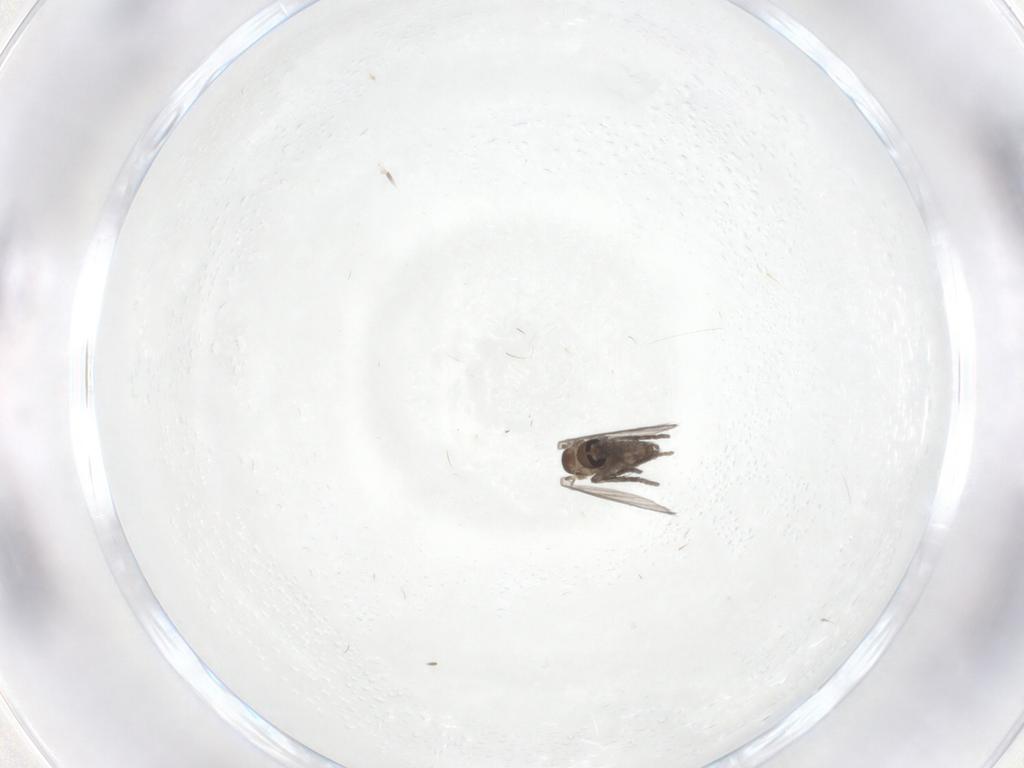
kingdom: Animalia
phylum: Arthropoda
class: Insecta
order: Diptera
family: Psychodidae
